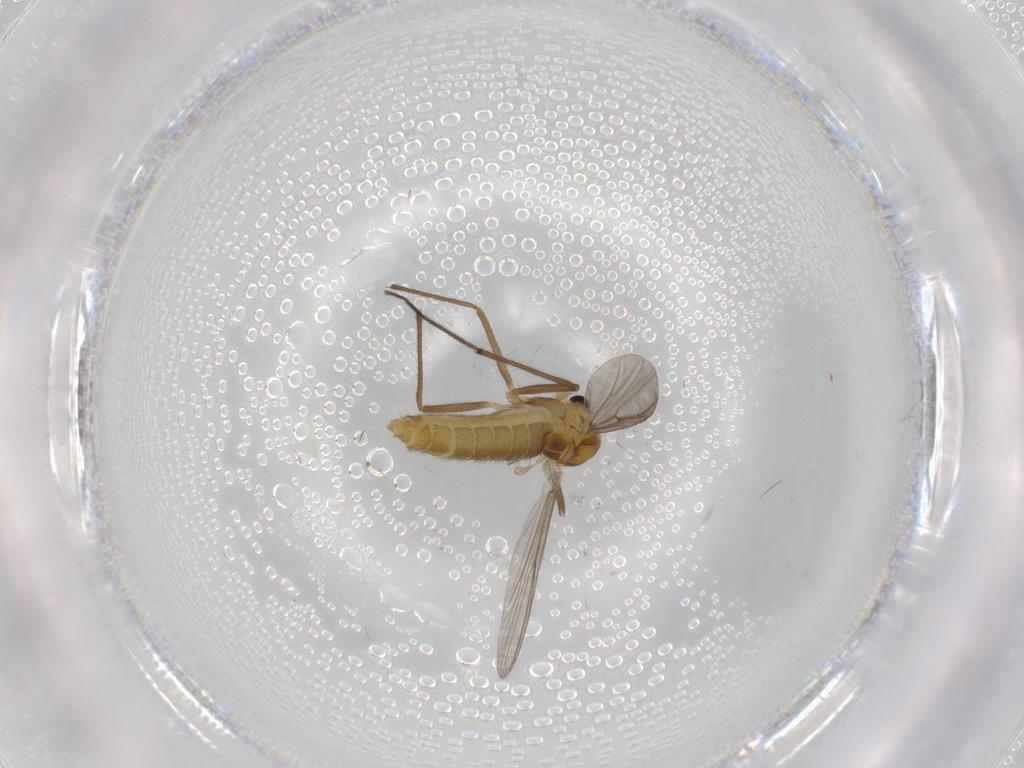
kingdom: Animalia
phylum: Arthropoda
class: Insecta
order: Diptera
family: Chironomidae
